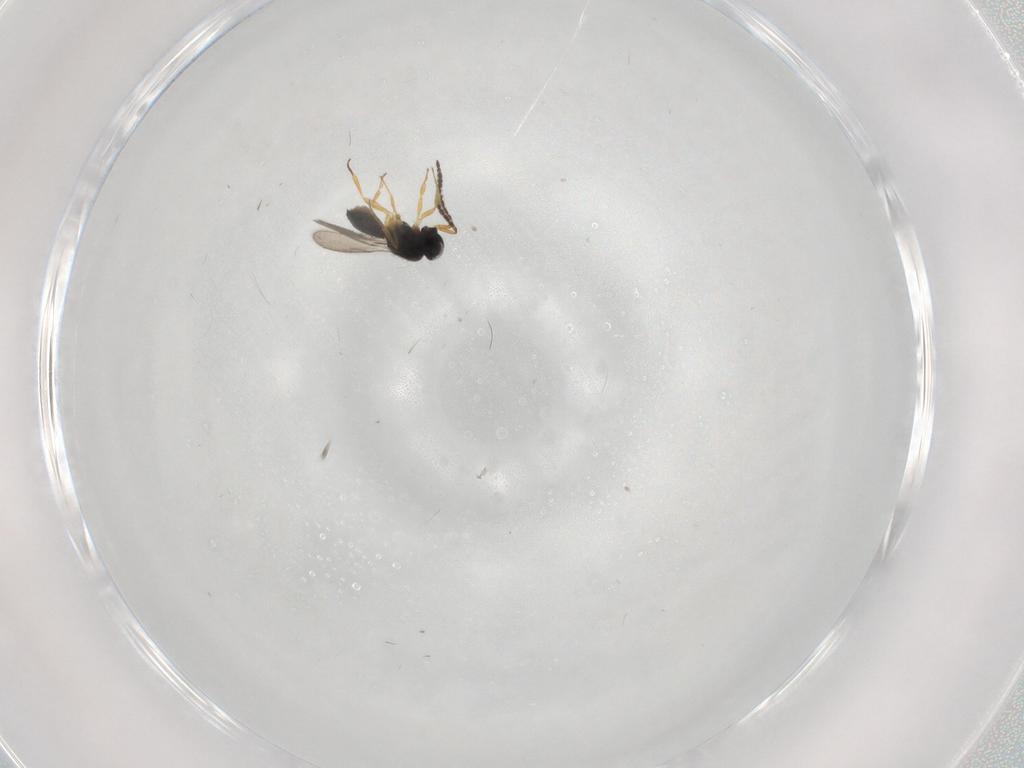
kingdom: Animalia
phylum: Arthropoda
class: Insecta
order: Hymenoptera
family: Scelionidae
